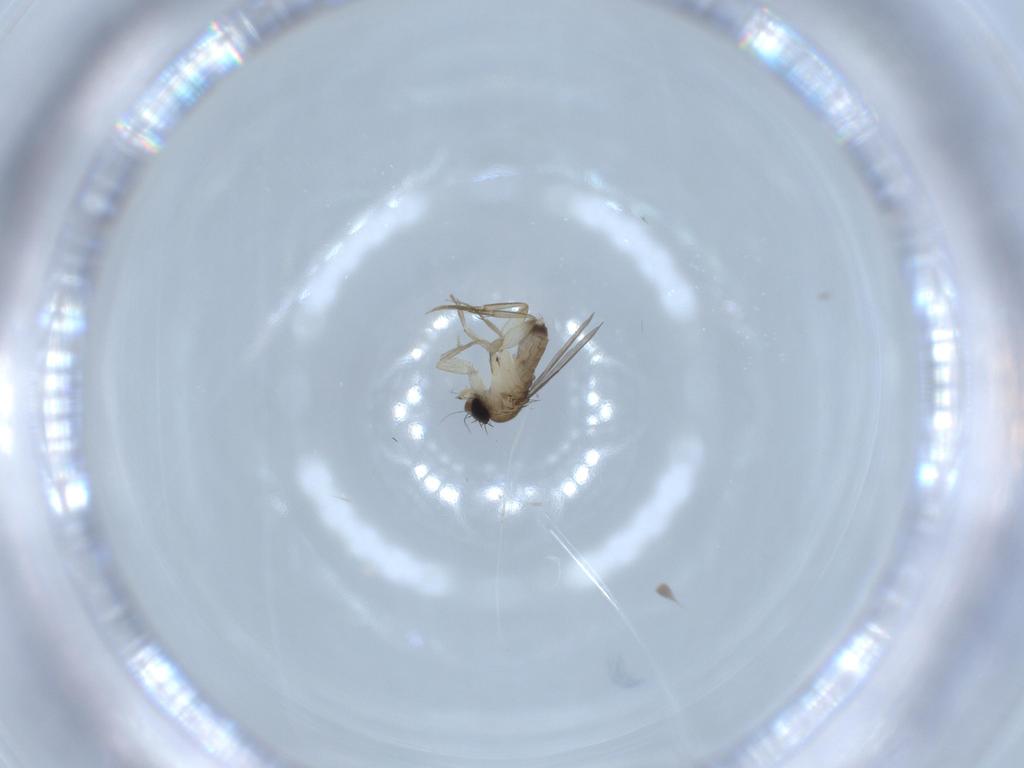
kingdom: Animalia
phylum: Arthropoda
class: Insecta
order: Diptera
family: Phoridae
